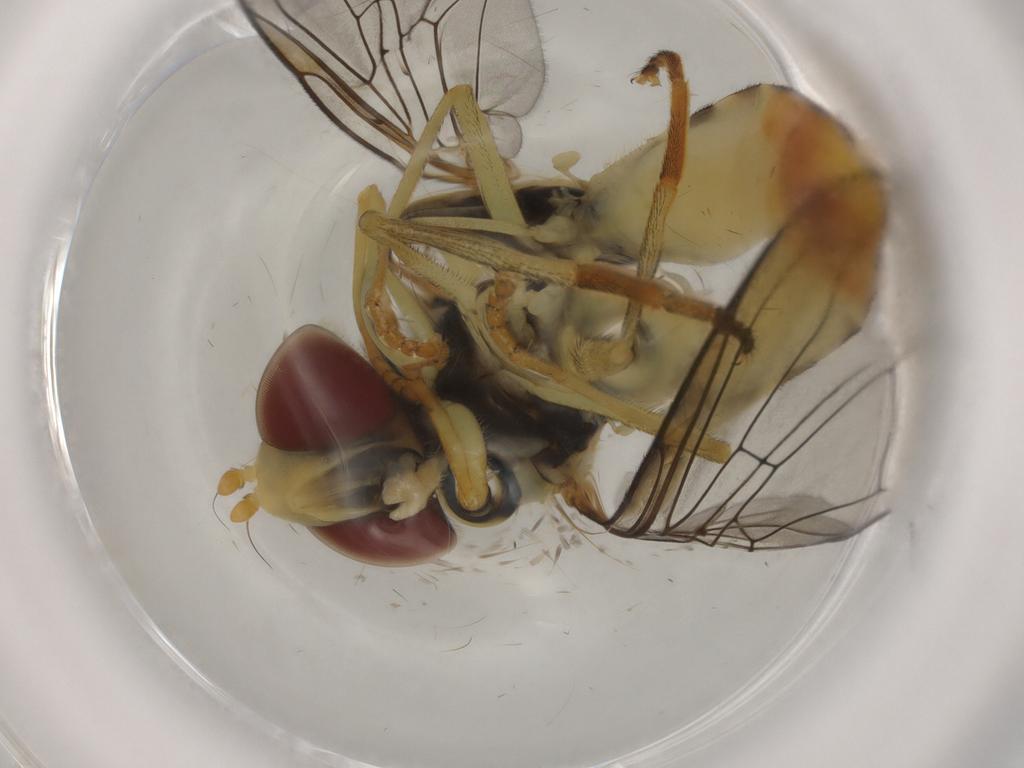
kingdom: Animalia
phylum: Arthropoda
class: Insecta
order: Diptera
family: Syrphidae
